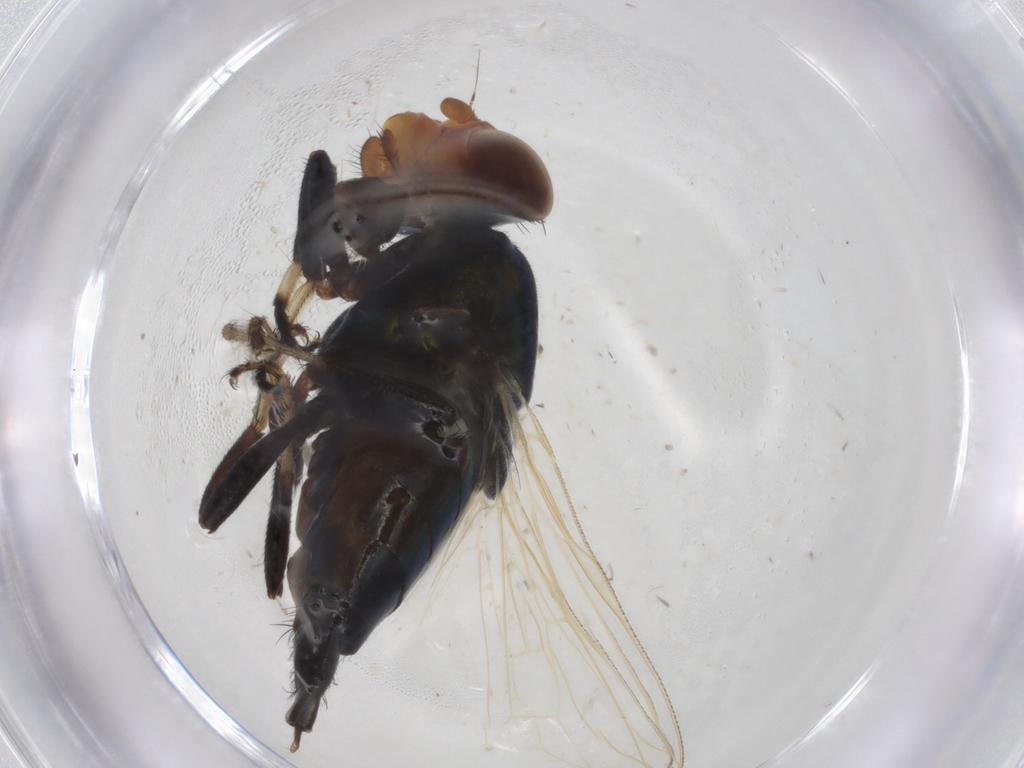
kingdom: Animalia
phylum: Arthropoda
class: Insecta
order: Diptera
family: Ulidiidae
